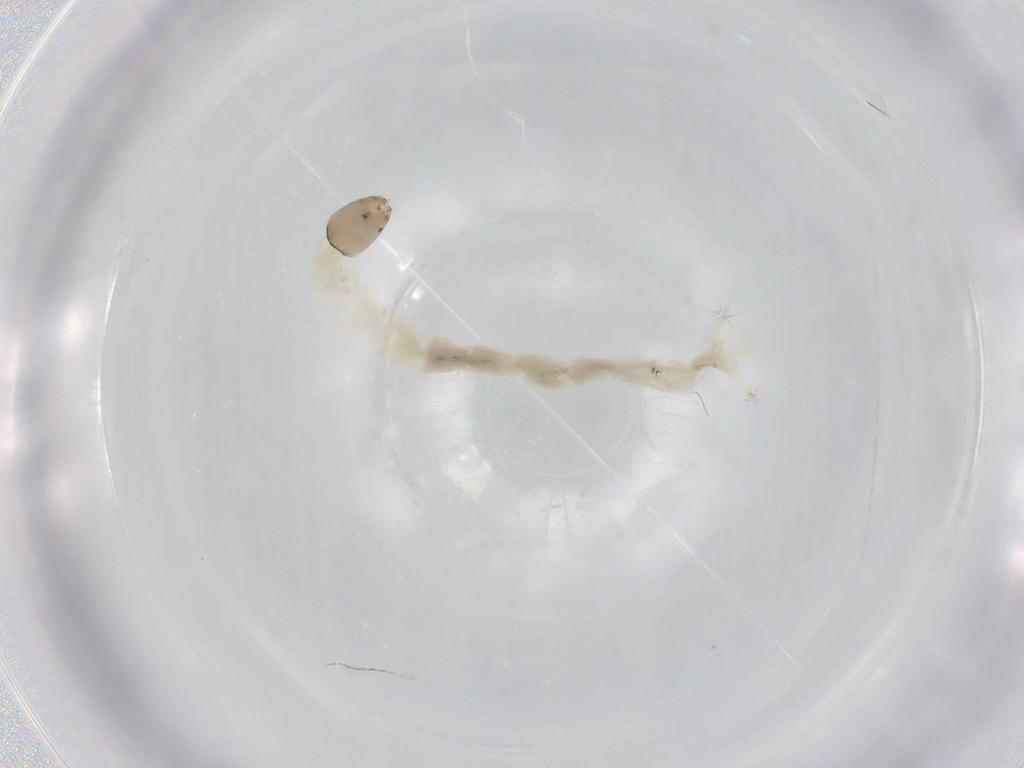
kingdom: Animalia
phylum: Arthropoda
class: Insecta
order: Diptera
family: Chironomidae
